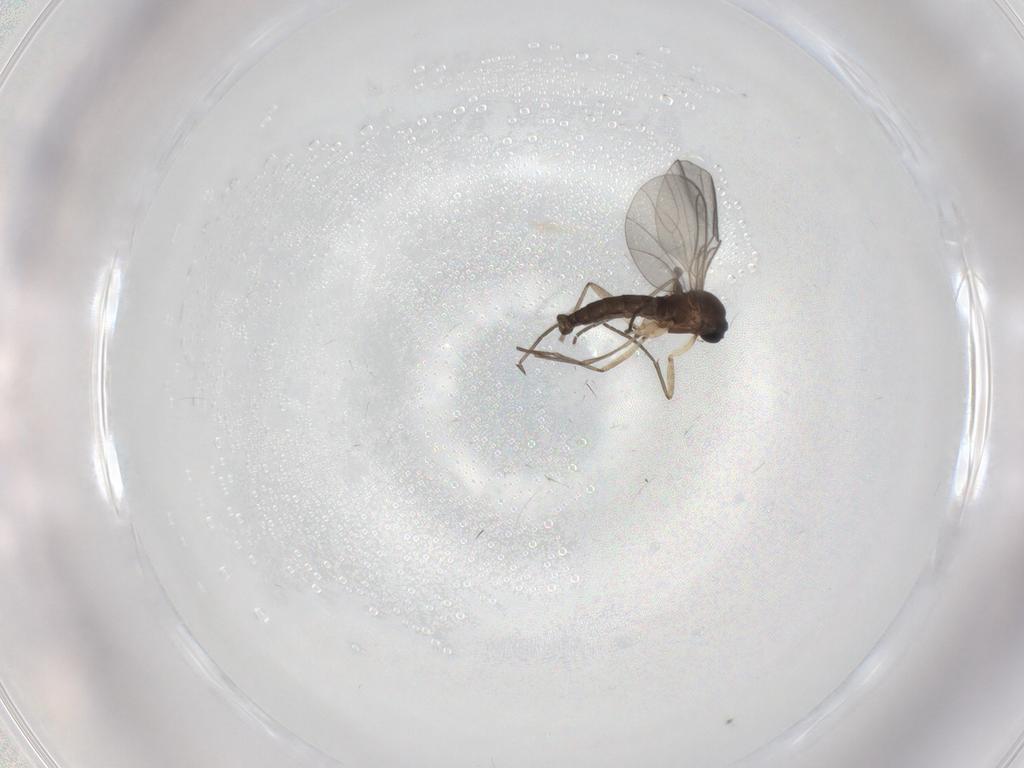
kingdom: Animalia
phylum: Arthropoda
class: Insecta
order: Diptera
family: Sciaridae
